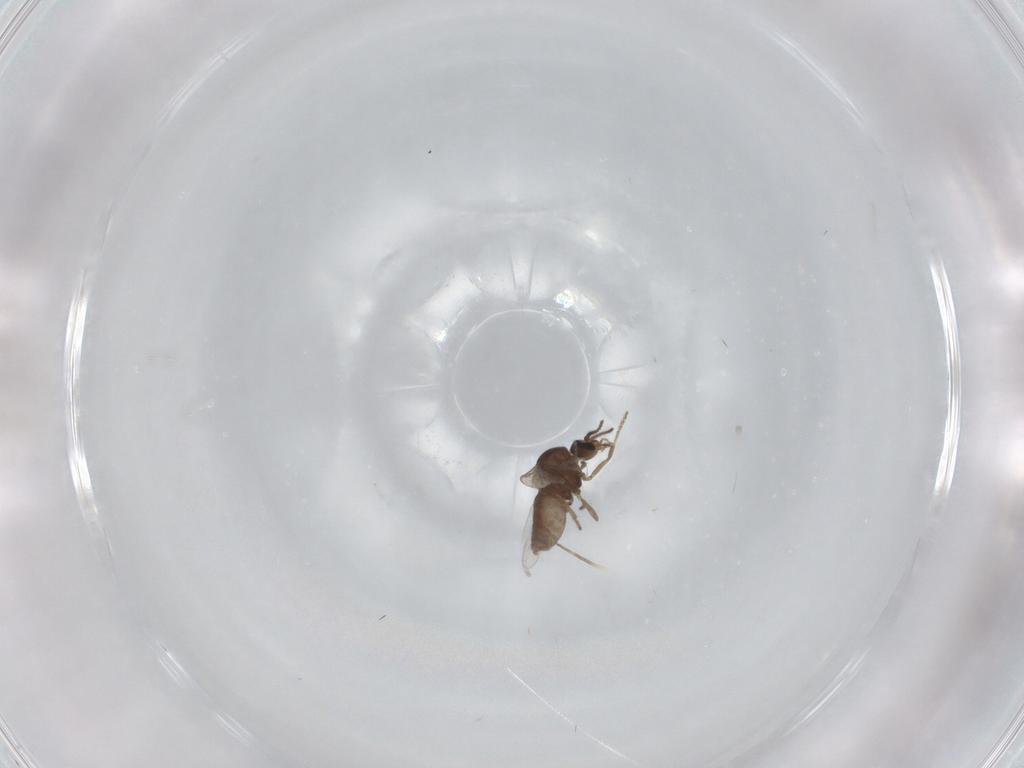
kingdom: Animalia
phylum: Arthropoda
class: Insecta
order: Diptera
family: Ceratopogonidae
